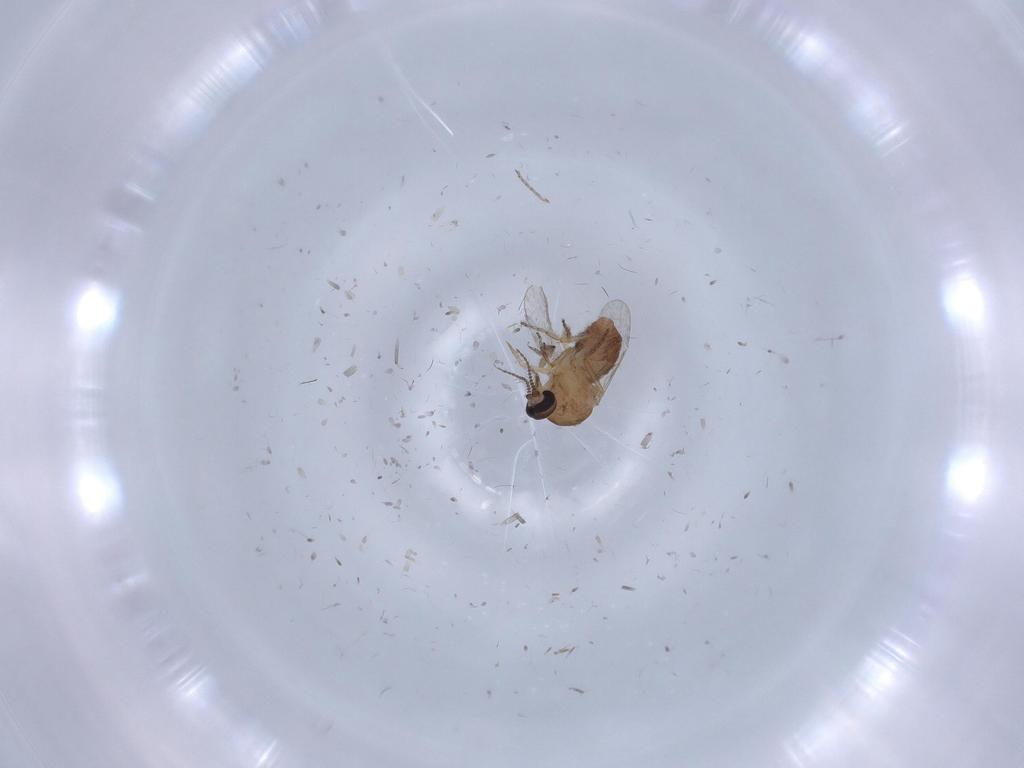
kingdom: Animalia
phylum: Arthropoda
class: Insecta
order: Diptera
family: Ceratopogonidae
